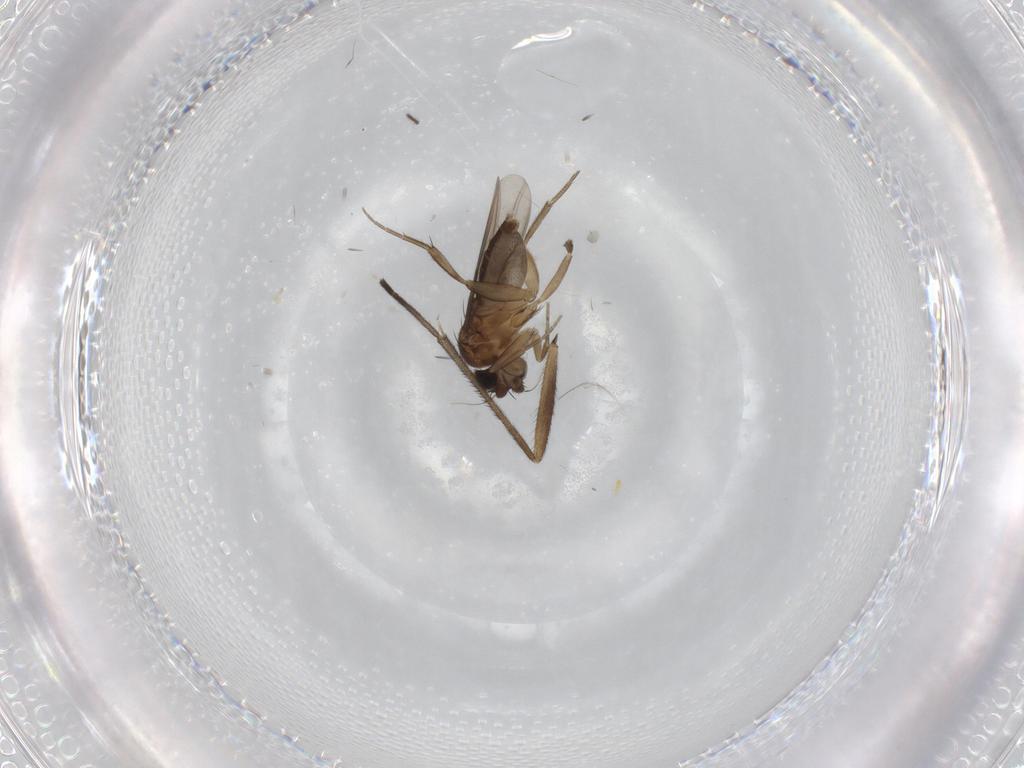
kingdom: Animalia
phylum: Arthropoda
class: Insecta
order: Diptera
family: Phoridae
